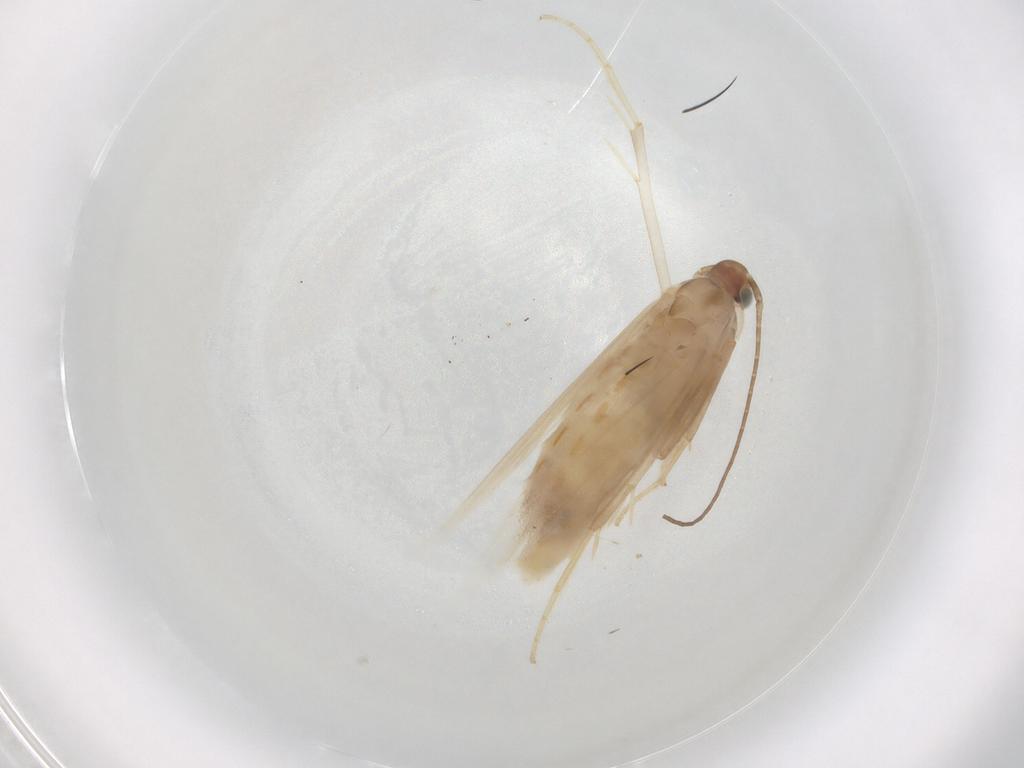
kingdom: Animalia
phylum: Arthropoda
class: Insecta
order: Lepidoptera
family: Coleophoridae
